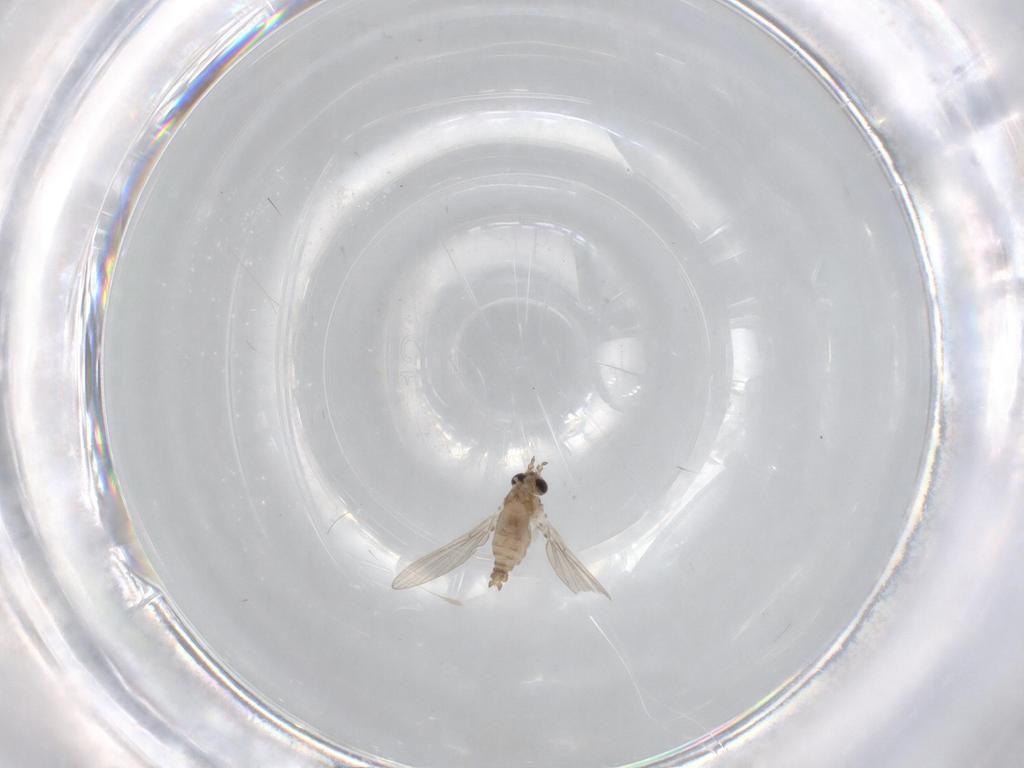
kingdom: Animalia
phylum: Arthropoda
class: Insecta
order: Diptera
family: Psychodidae
